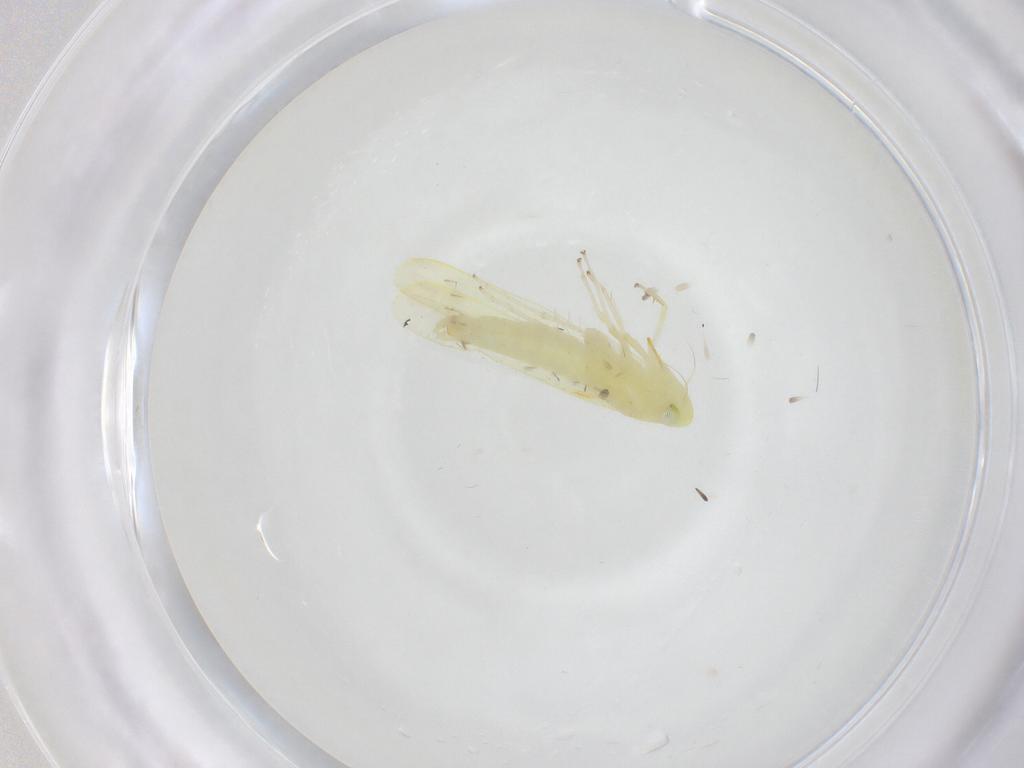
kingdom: Animalia
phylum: Arthropoda
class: Insecta
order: Hemiptera
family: Cicadellidae
